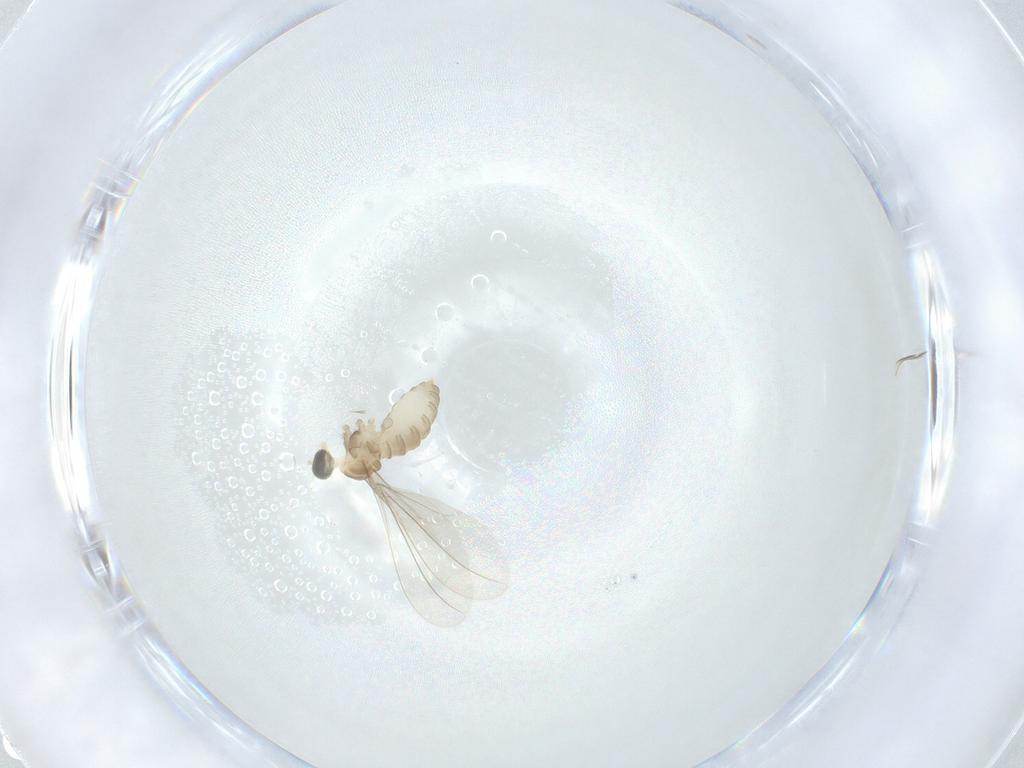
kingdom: Animalia
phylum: Arthropoda
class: Insecta
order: Diptera
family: Cecidomyiidae
